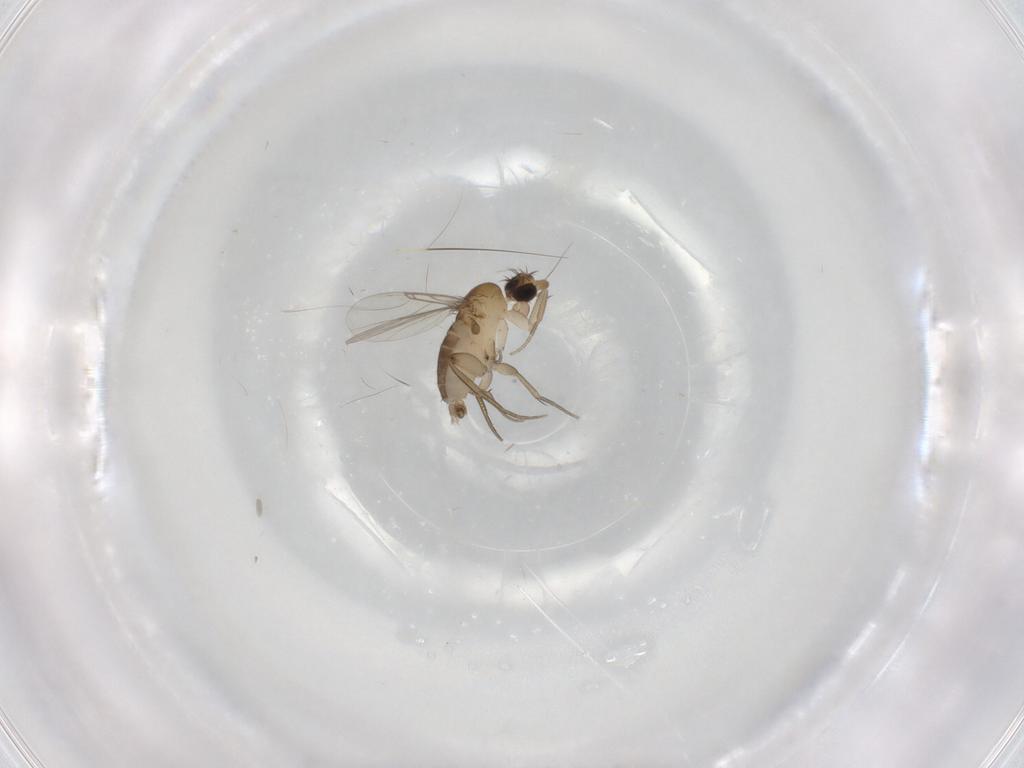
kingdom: Animalia
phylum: Arthropoda
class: Insecta
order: Diptera
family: Phoridae
